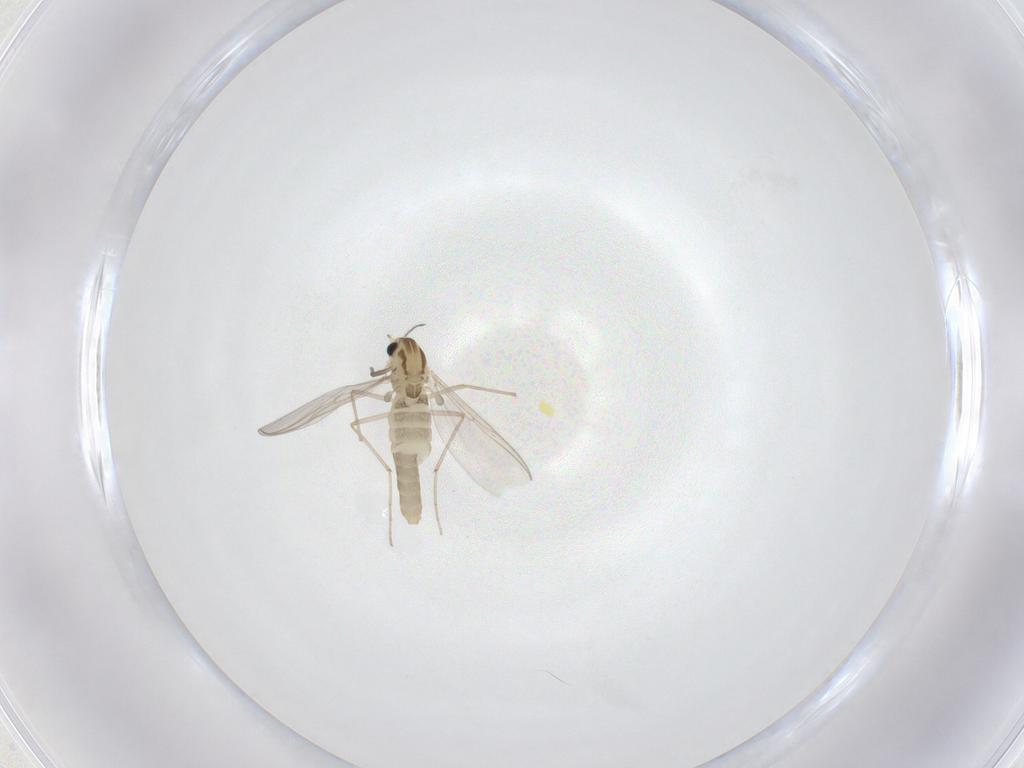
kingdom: Animalia
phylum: Arthropoda
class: Insecta
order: Diptera
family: Chironomidae
